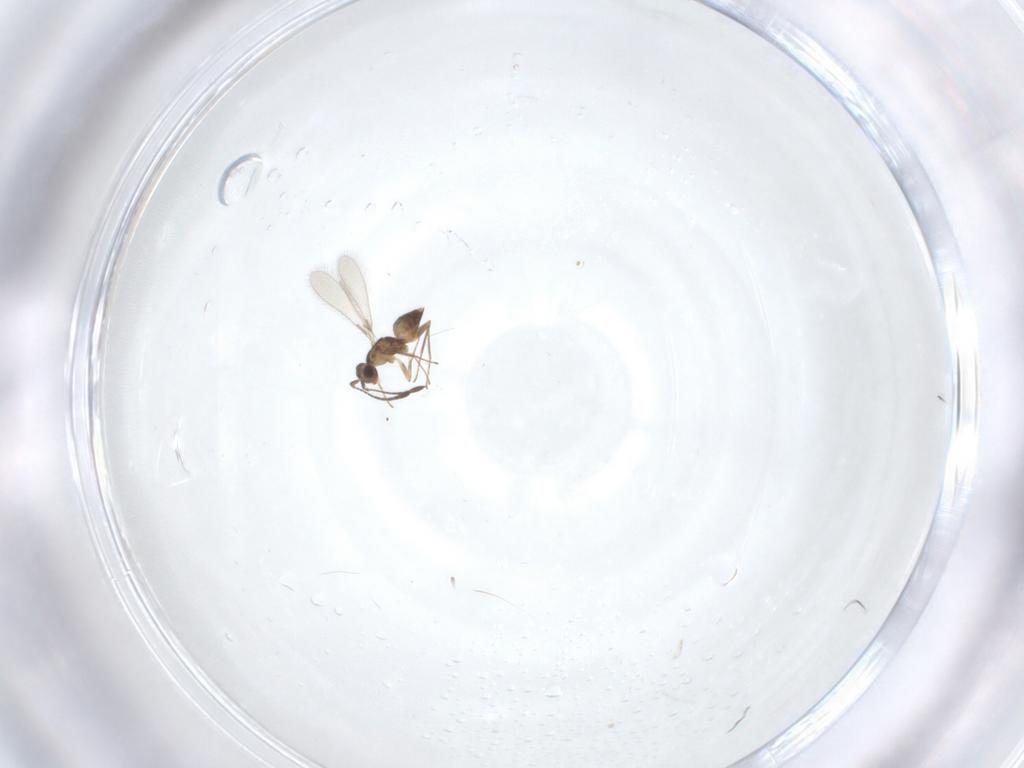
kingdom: Animalia
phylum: Arthropoda
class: Insecta
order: Hymenoptera
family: Mymaridae
